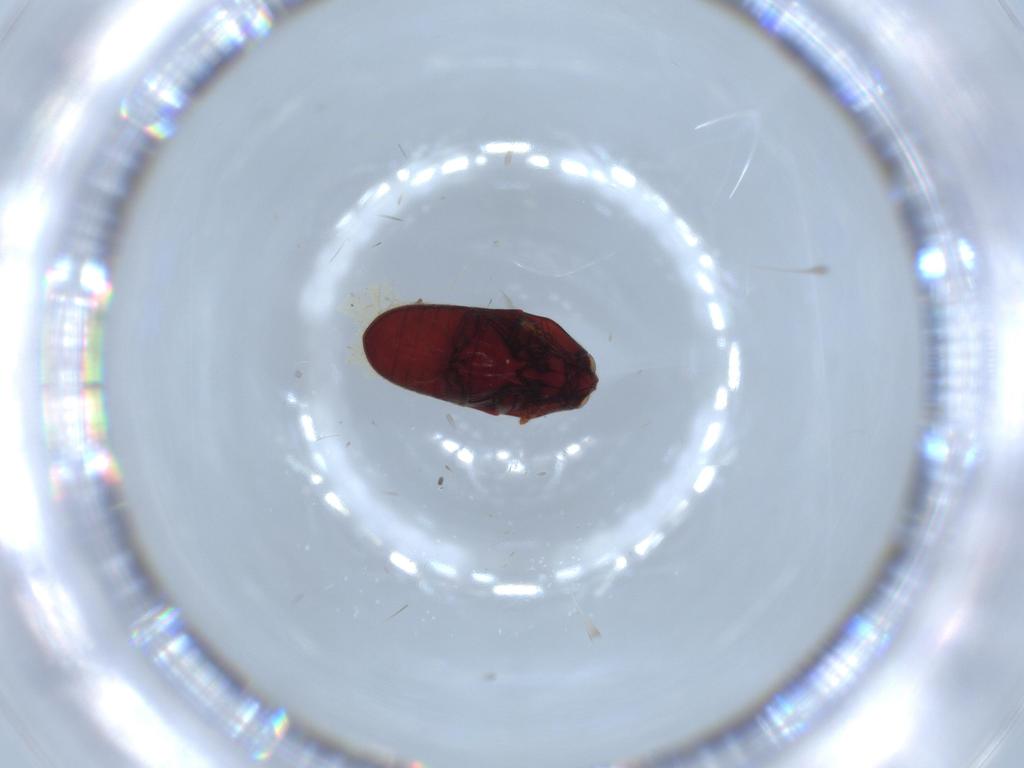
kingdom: Animalia
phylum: Arthropoda
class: Insecta
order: Coleoptera
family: Throscidae
